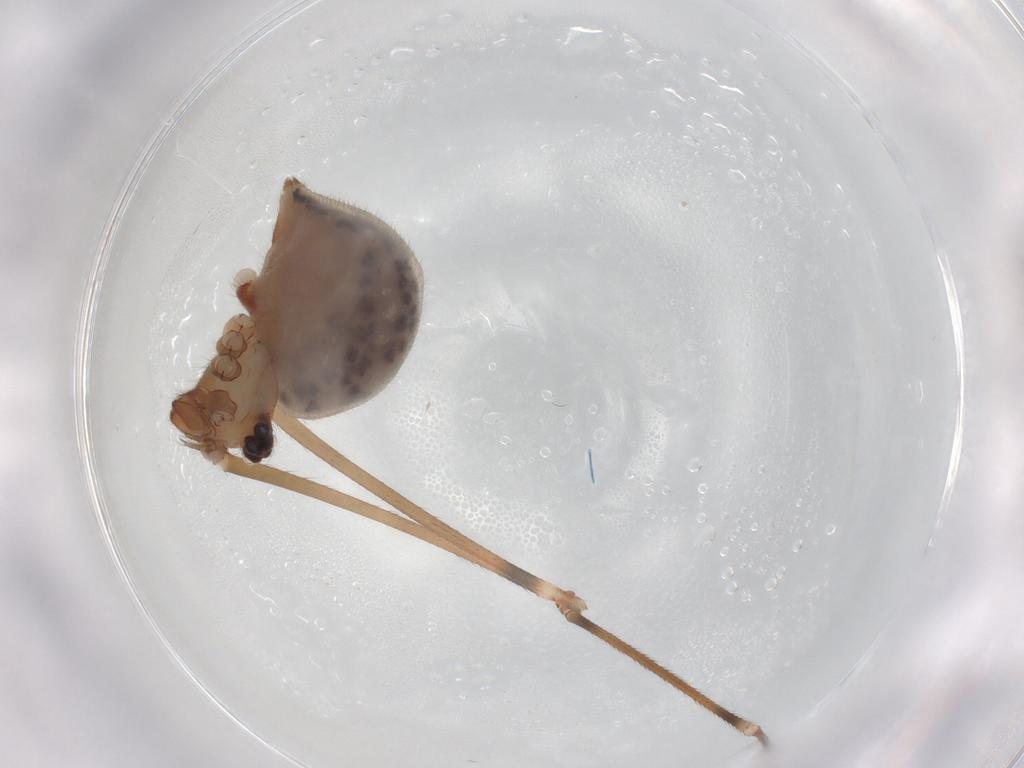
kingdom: Animalia
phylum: Arthropoda
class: Arachnida
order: Araneae
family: Pholcidae
